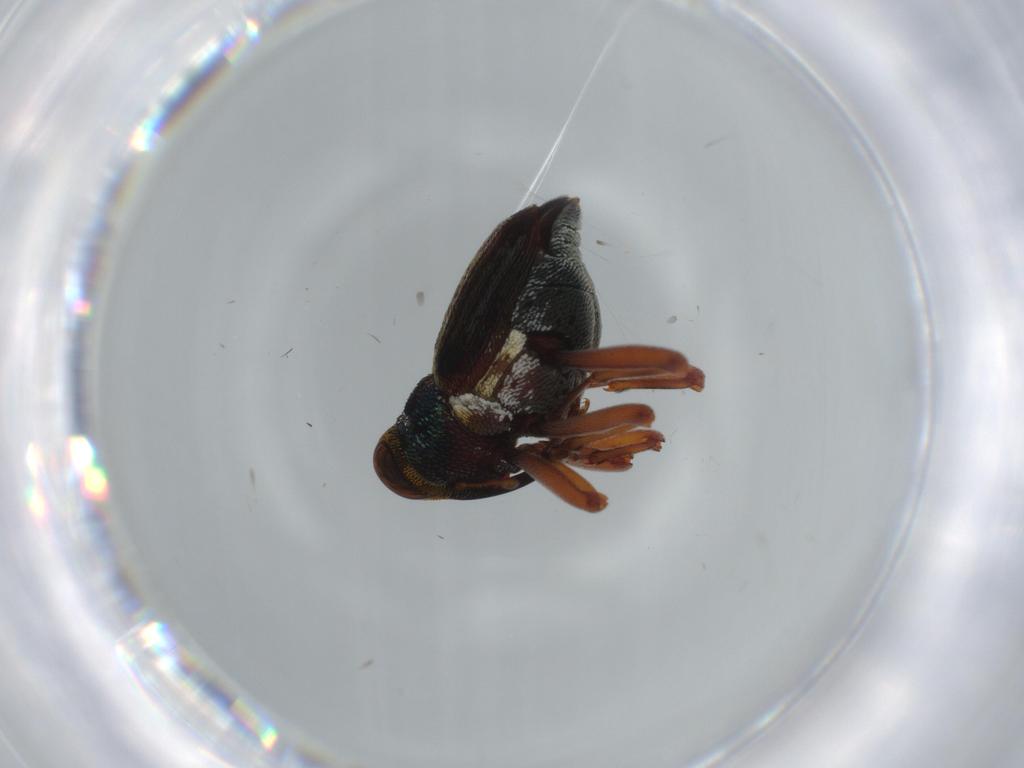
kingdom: Animalia
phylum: Arthropoda
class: Insecta
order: Coleoptera
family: Curculionidae
